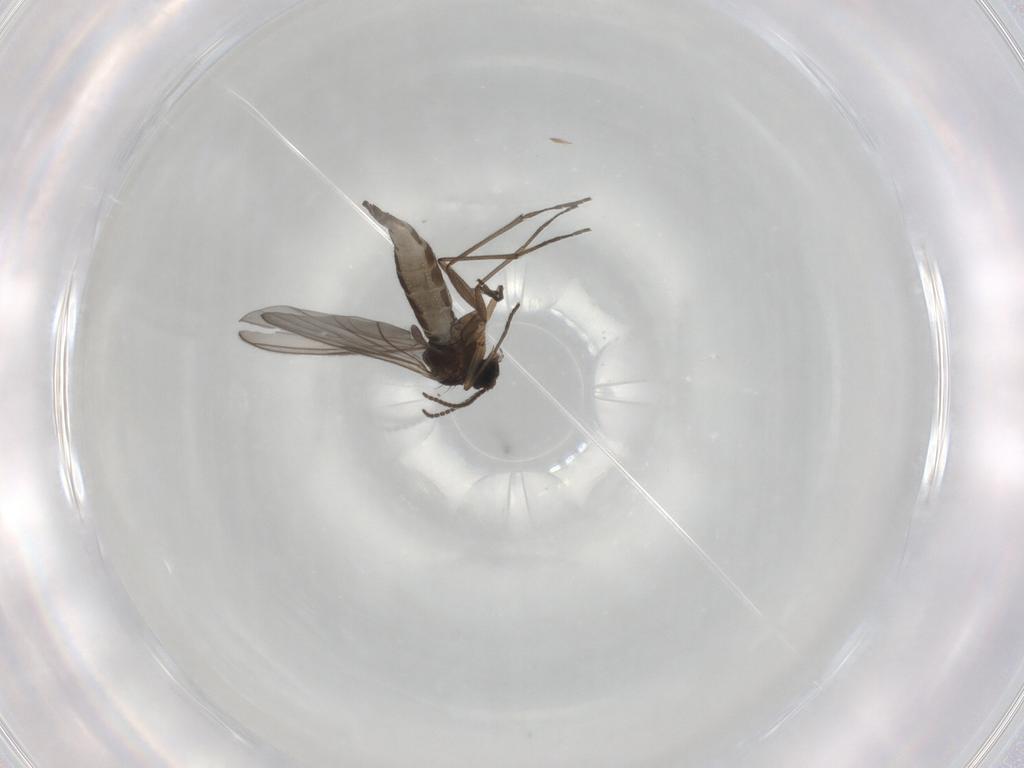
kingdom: Animalia
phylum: Arthropoda
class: Insecta
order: Diptera
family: Sciaridae
